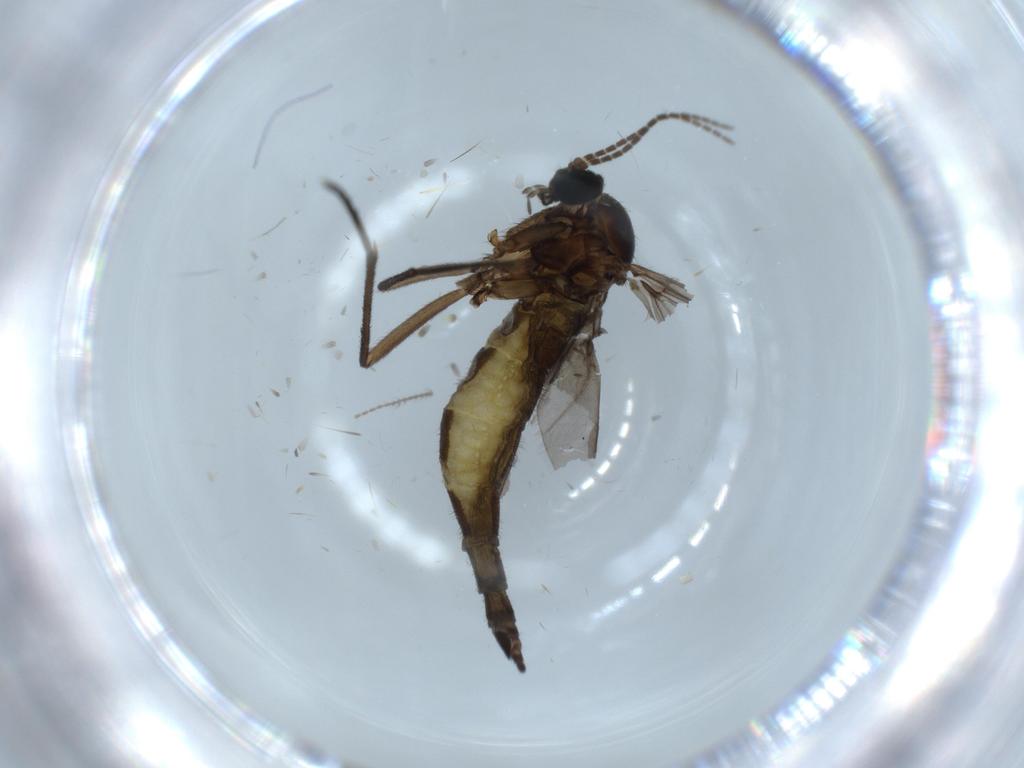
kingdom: Animalia
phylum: Arthropoda
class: Insecta
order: Diptera
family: Sciaridae
